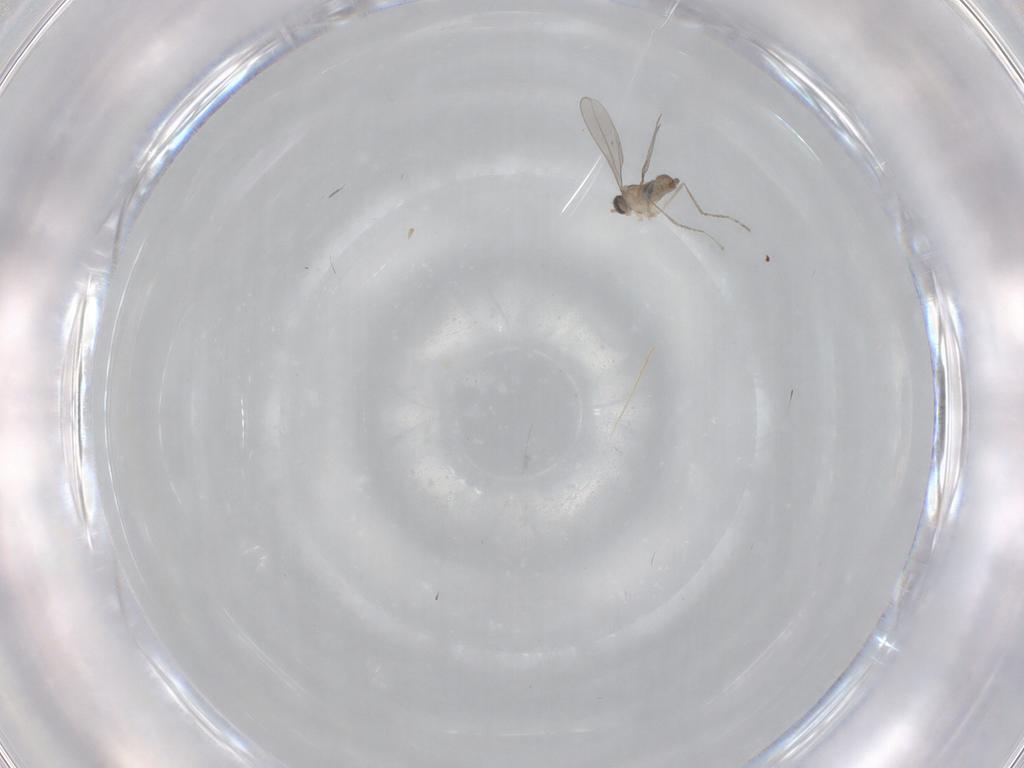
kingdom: Animalia
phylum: Arthropoda
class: Insecta
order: Diptera
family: Cecidomyiidae
